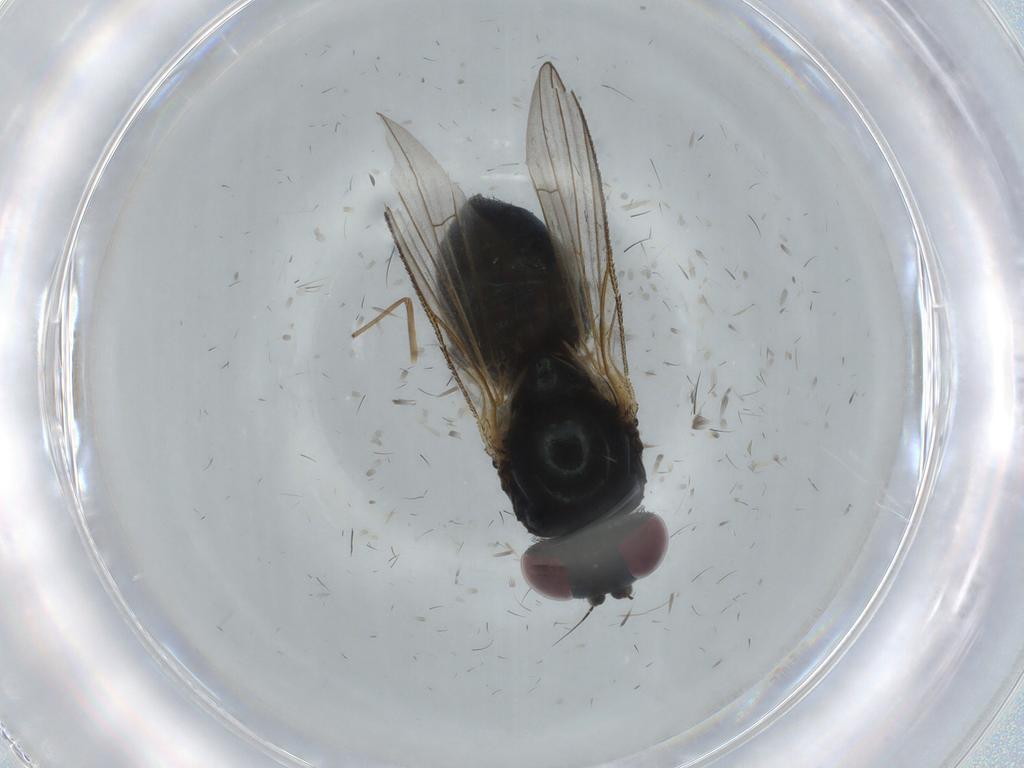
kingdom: Animalia
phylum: Arthropoda
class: Insecta
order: Diptera
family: Fannia
